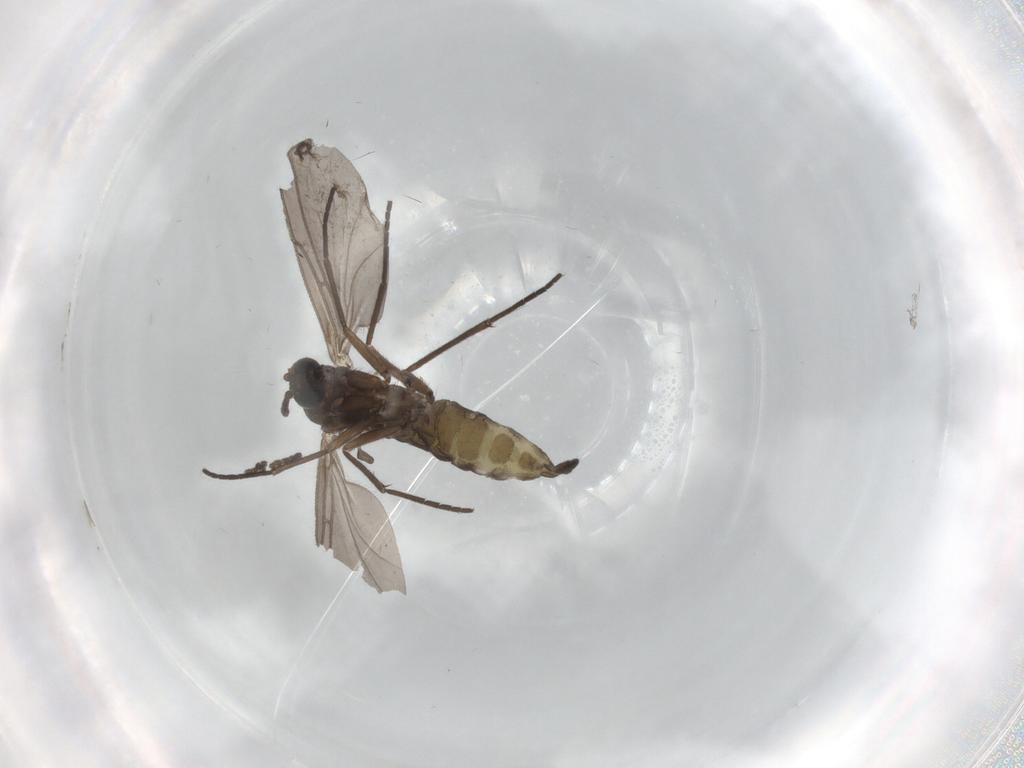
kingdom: Animalia
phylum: Arthropoda
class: Insecta
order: Diptera
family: Sciaridae
